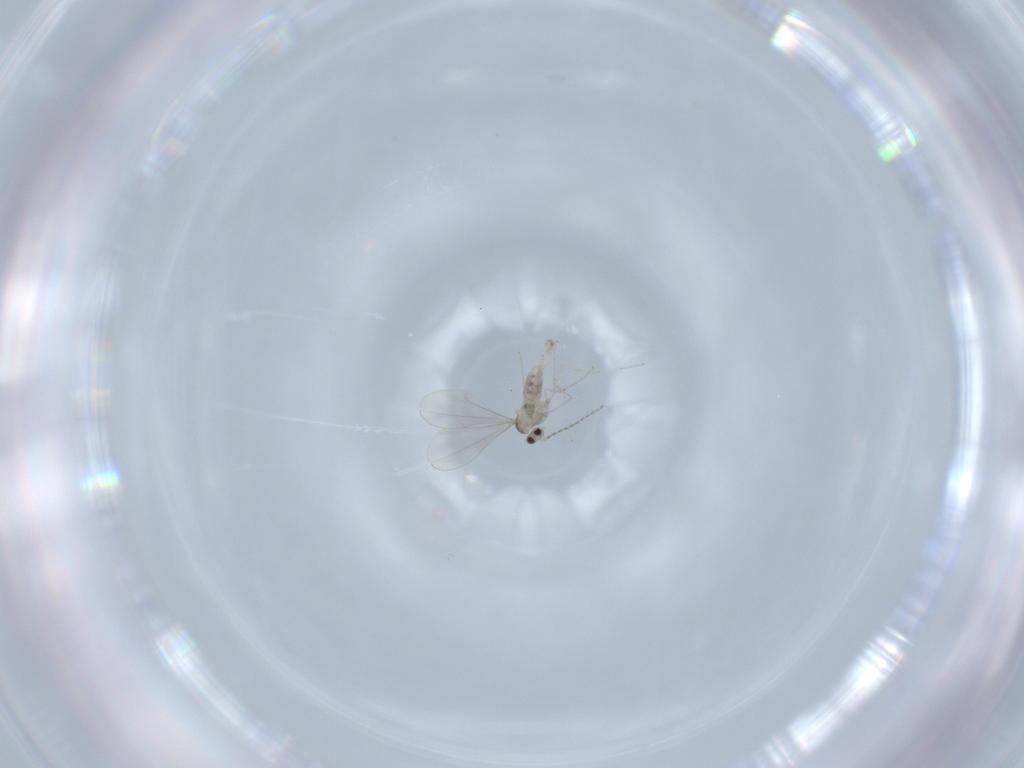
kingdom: Animalia
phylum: Arthropoda
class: Insecta
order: Diptera
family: Cecidomyiidae
